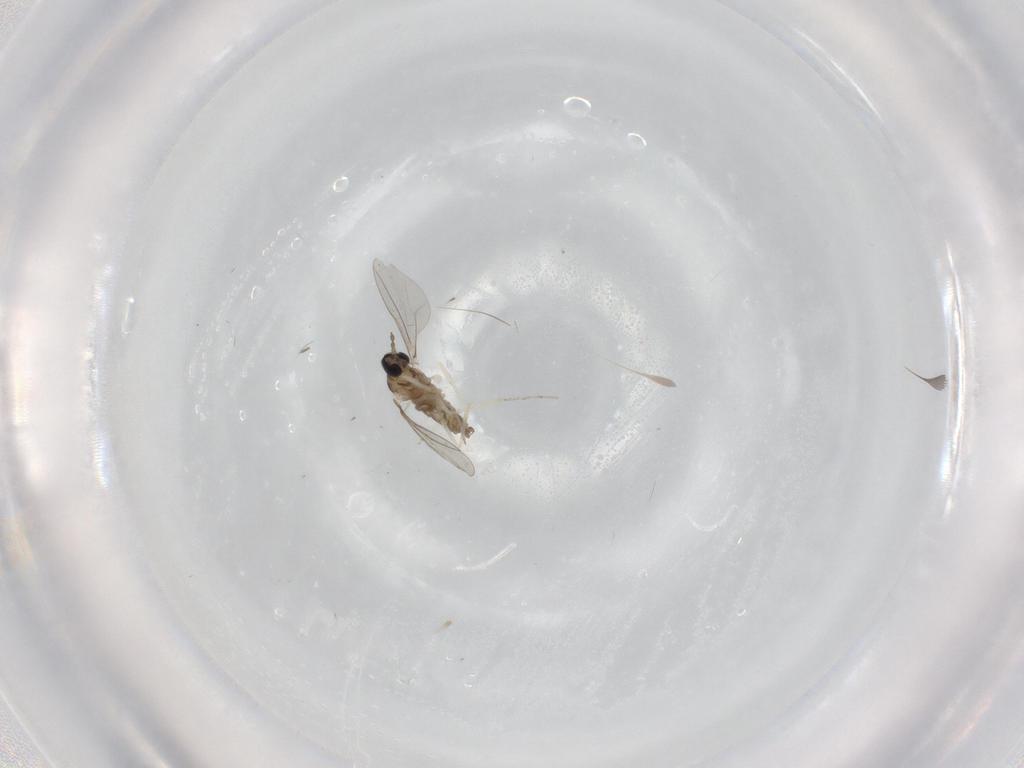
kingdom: Animalia
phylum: Arthropoda
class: Insecta
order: Diptera
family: Cecidomyiidae
